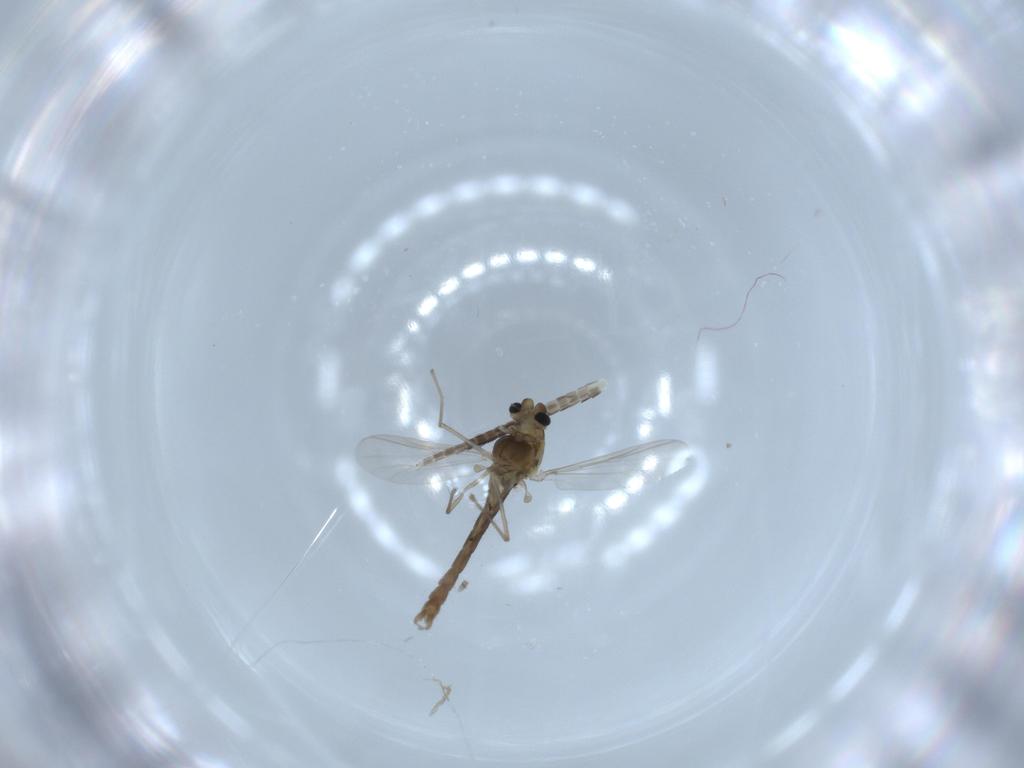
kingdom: Animalia
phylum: Arthropoda
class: Insecta
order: Diptera
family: Chironomidae
